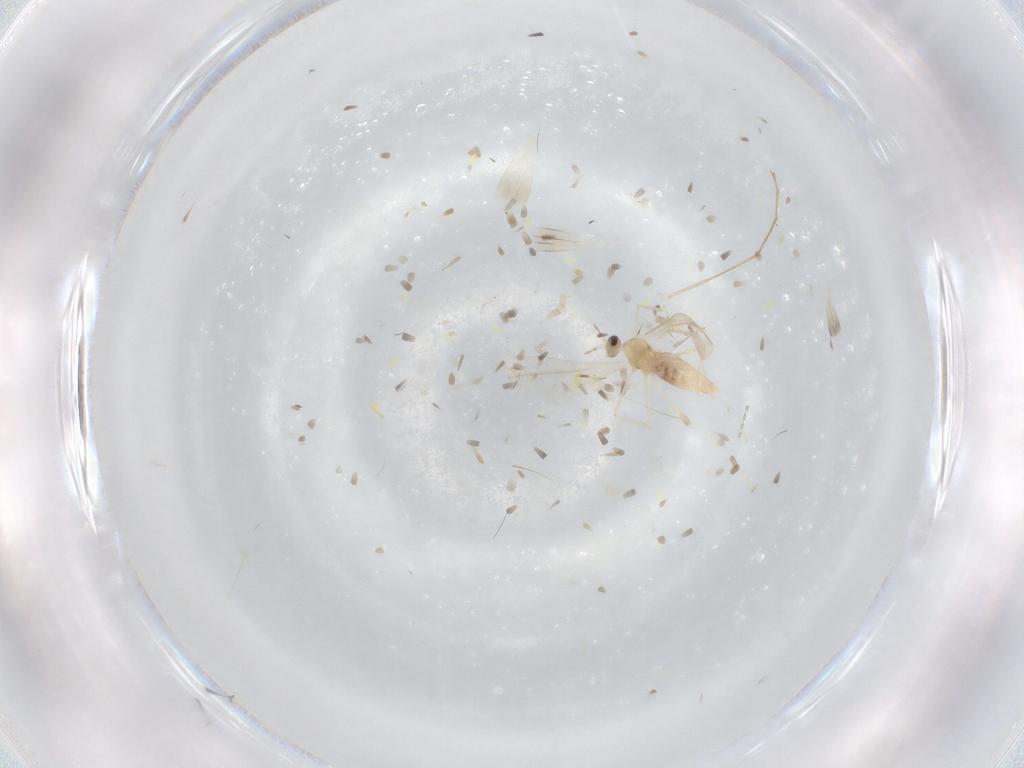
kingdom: Animalia
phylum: Arthropoda
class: Insecta
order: Diptera
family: Cecidomyiidae
